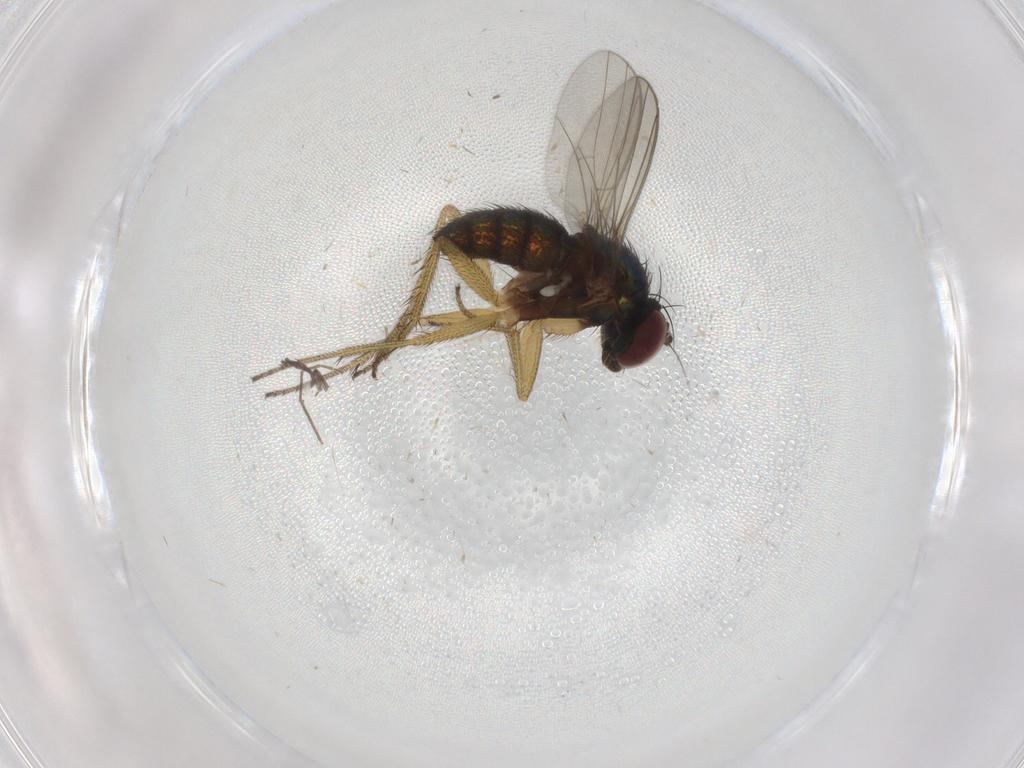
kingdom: Animalia
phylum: Arthropoda
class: Insecta
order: Diptera
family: Sciaridae
